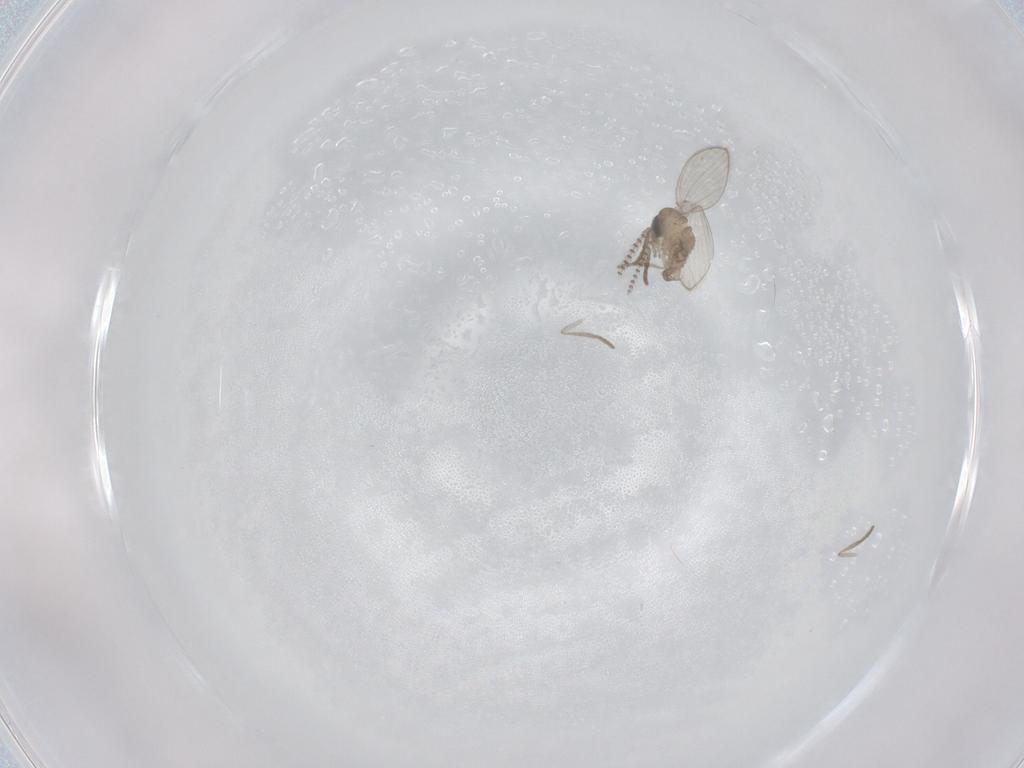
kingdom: Animalia
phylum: Arthropoda
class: Insecta
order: Diptera
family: Psychodidae
